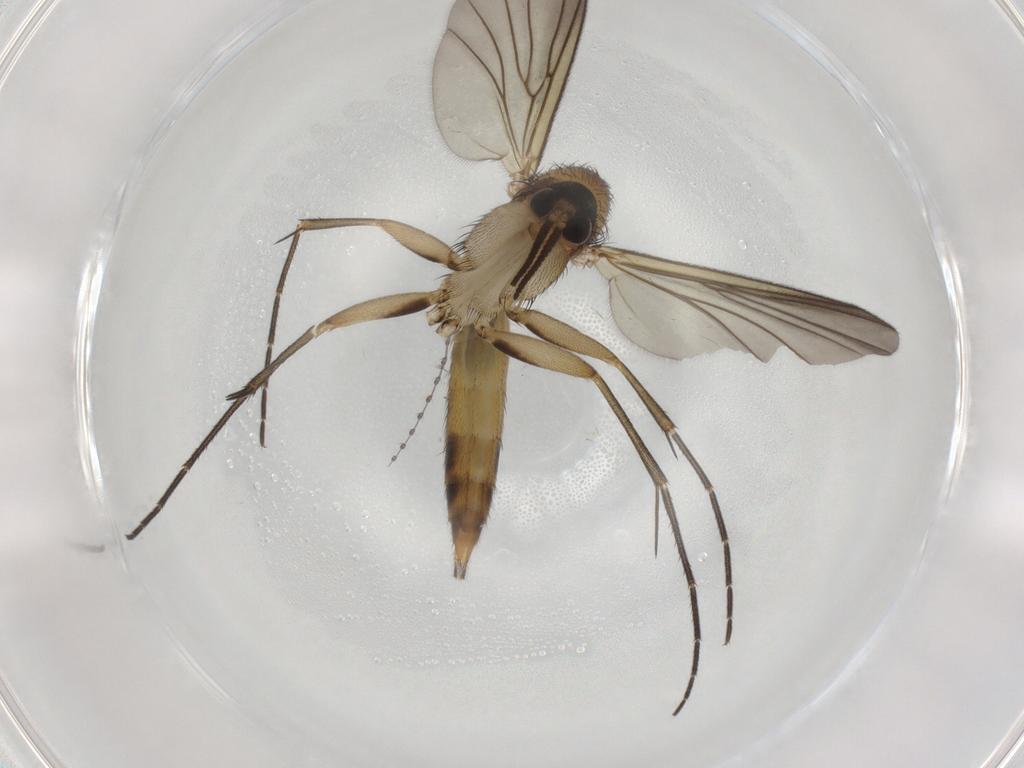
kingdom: Animalia
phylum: Arthropoda
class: Insecta
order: Diptera
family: Mycetophilidae
